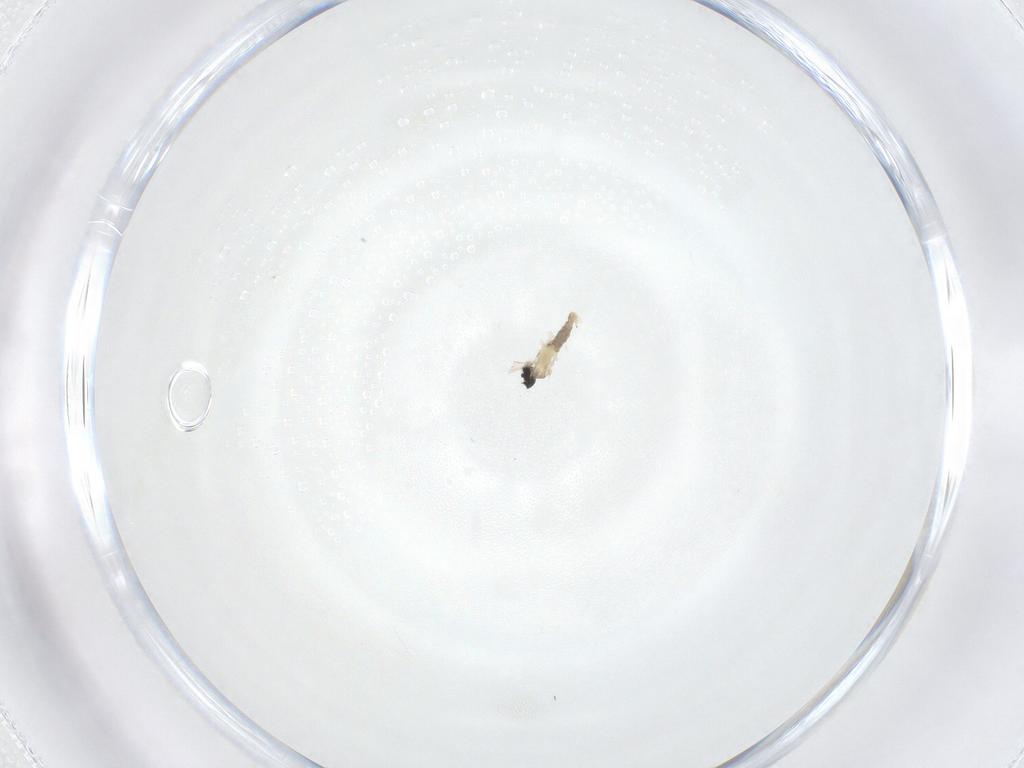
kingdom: Animalia
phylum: Arthropoda
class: Insecta
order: Diptera
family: Cecidomyiidae
